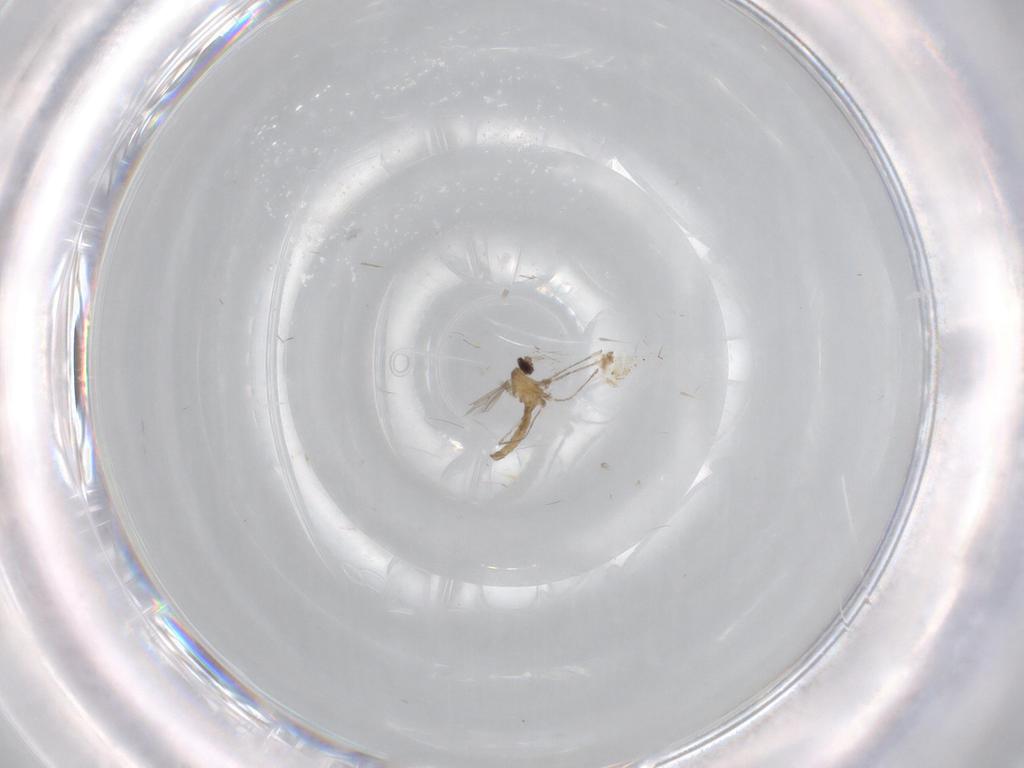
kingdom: Animalia
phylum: Arthropoda
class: Insecta
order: Diptera
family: Cecidomyiidae
